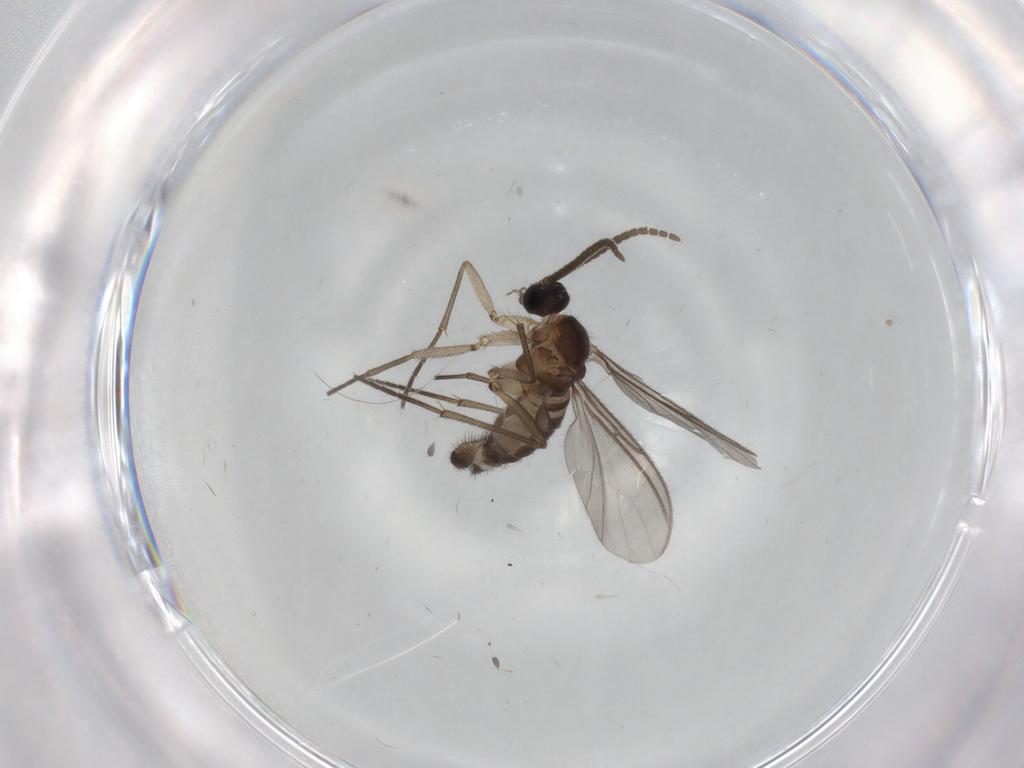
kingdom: Animalia
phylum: Arthropoda
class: Insecta
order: Diptera
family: Sciaridae
